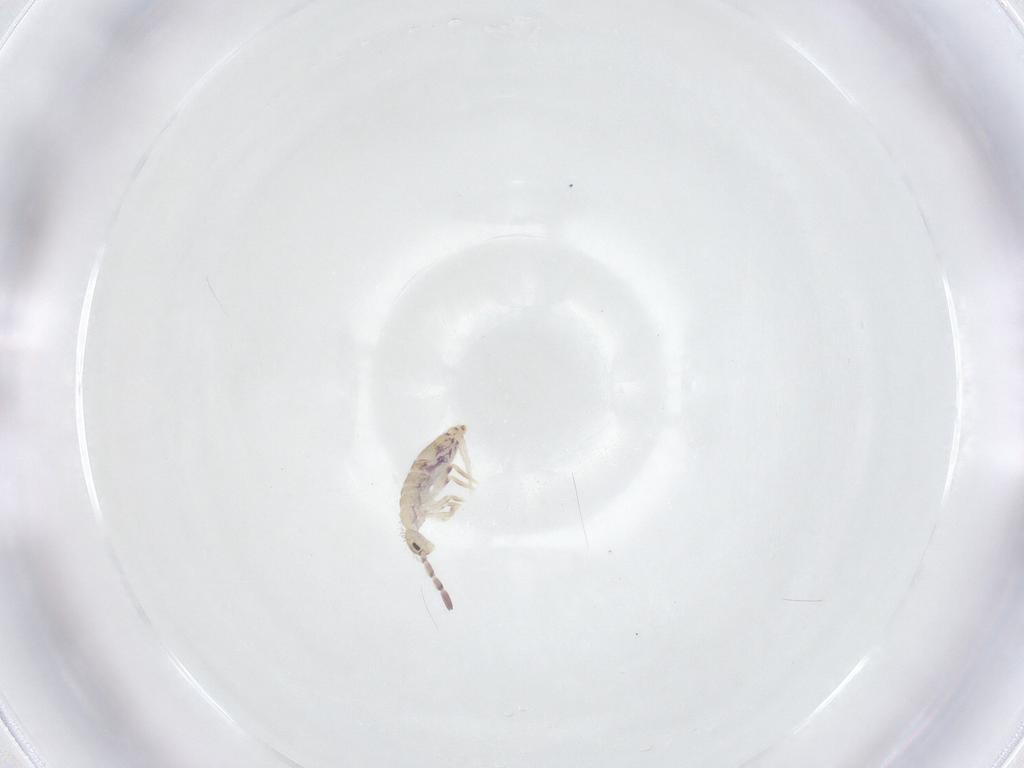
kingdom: Animalia
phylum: Arthropoda
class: Collembola
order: Entomobryomorpha
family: Entomobryidae
